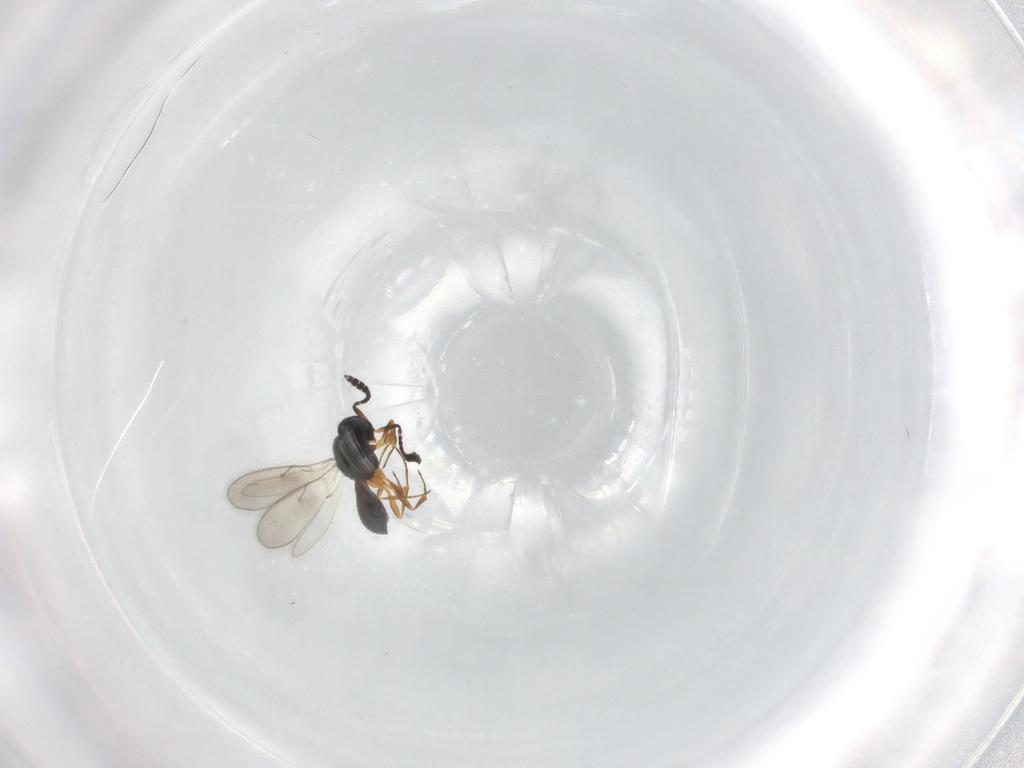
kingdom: Animalia
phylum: Arthropoda
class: Insecta
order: Hymenoptera
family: Scelionidae
